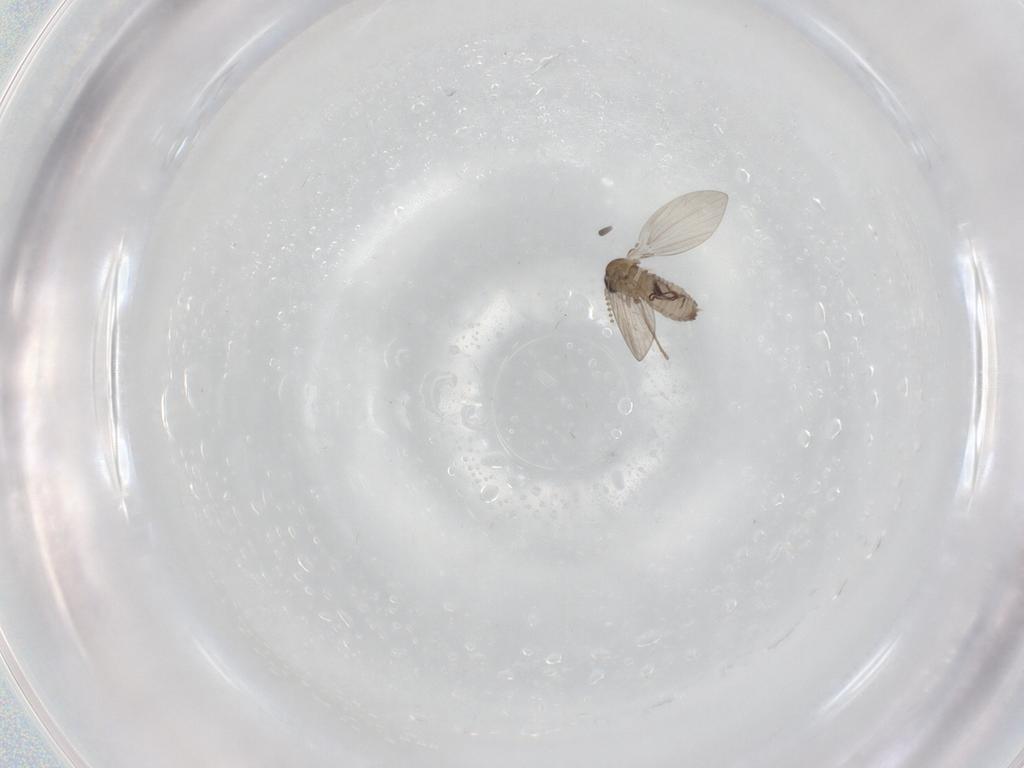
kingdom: Animalia
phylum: Arthropoda
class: Insecta
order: Diptera
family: Psychodidae
